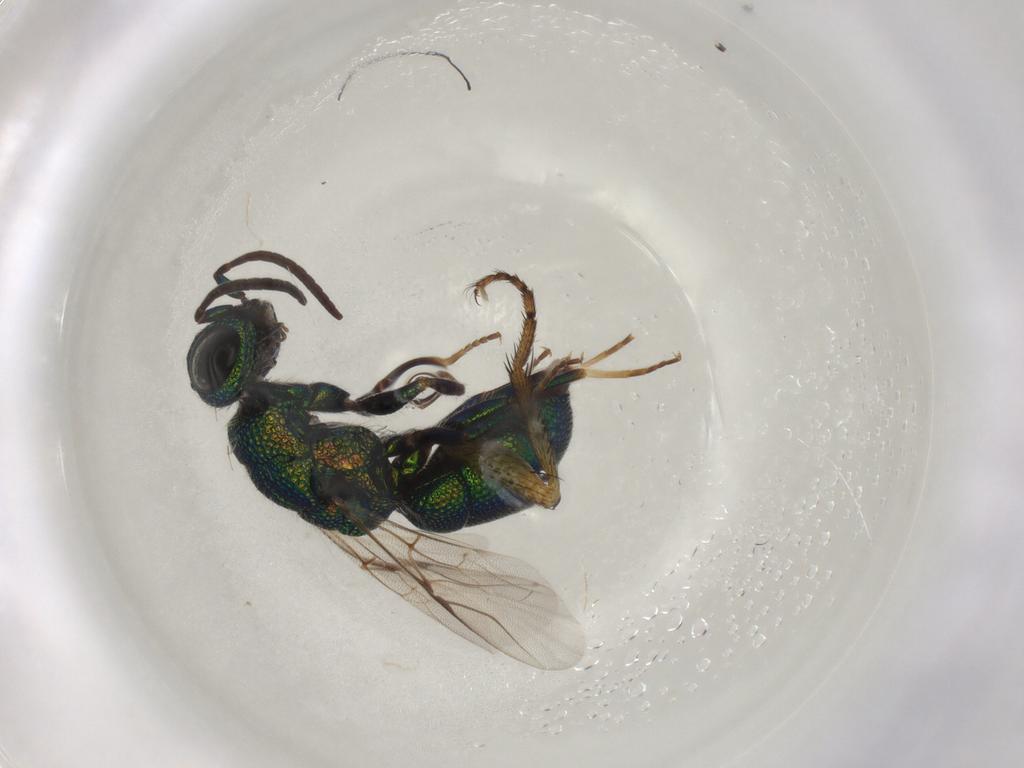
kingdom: Animalia
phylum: Arthropoda
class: Insecta
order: Hymenoptera
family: Chrysididae
